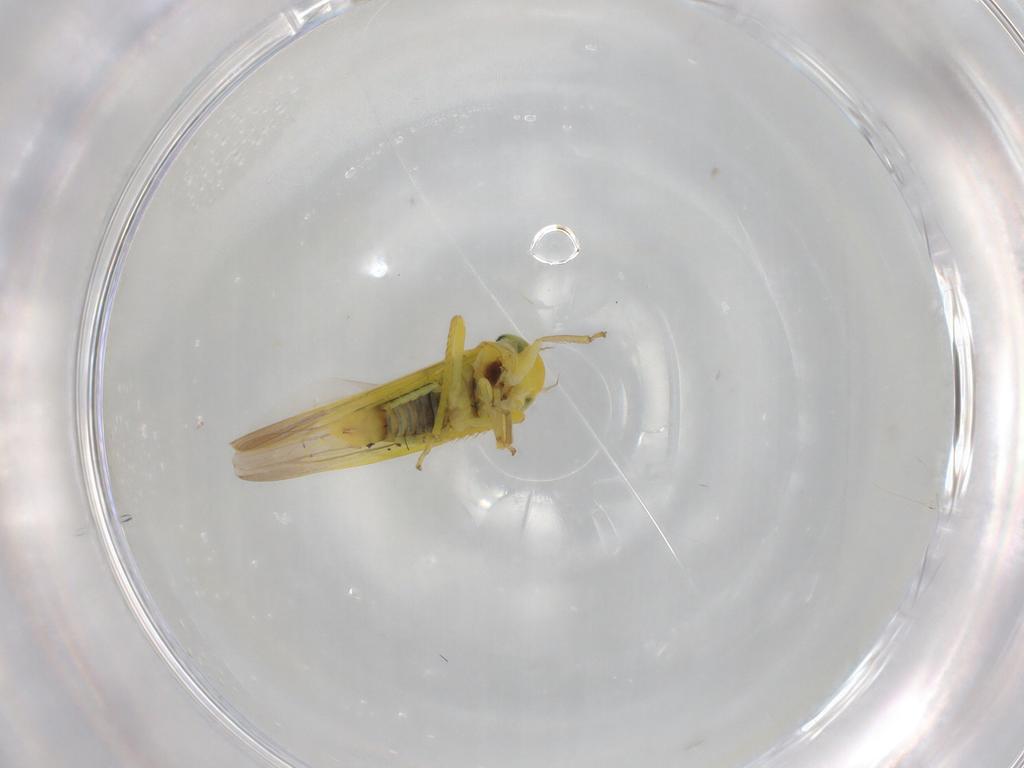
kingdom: Animalia
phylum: Arthropoda
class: Insecta
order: Hemiptera
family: Cicadellidae
